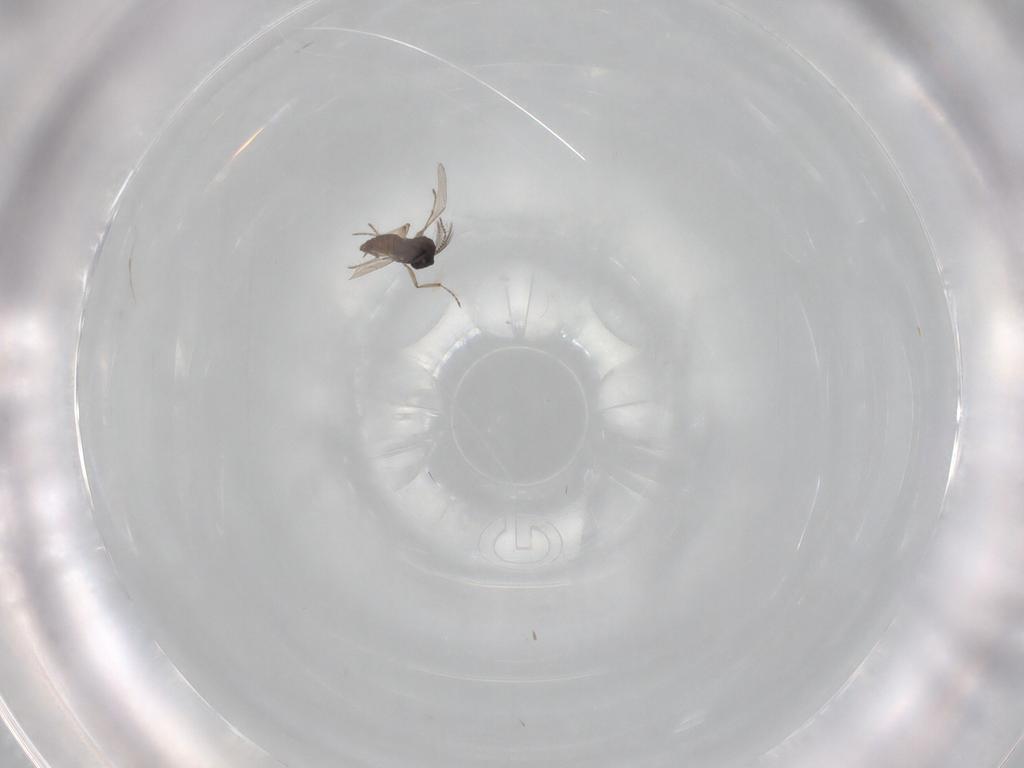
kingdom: Animalia
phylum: Arthropoda
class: Insecta
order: Diptera
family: Ceratopogonidae
